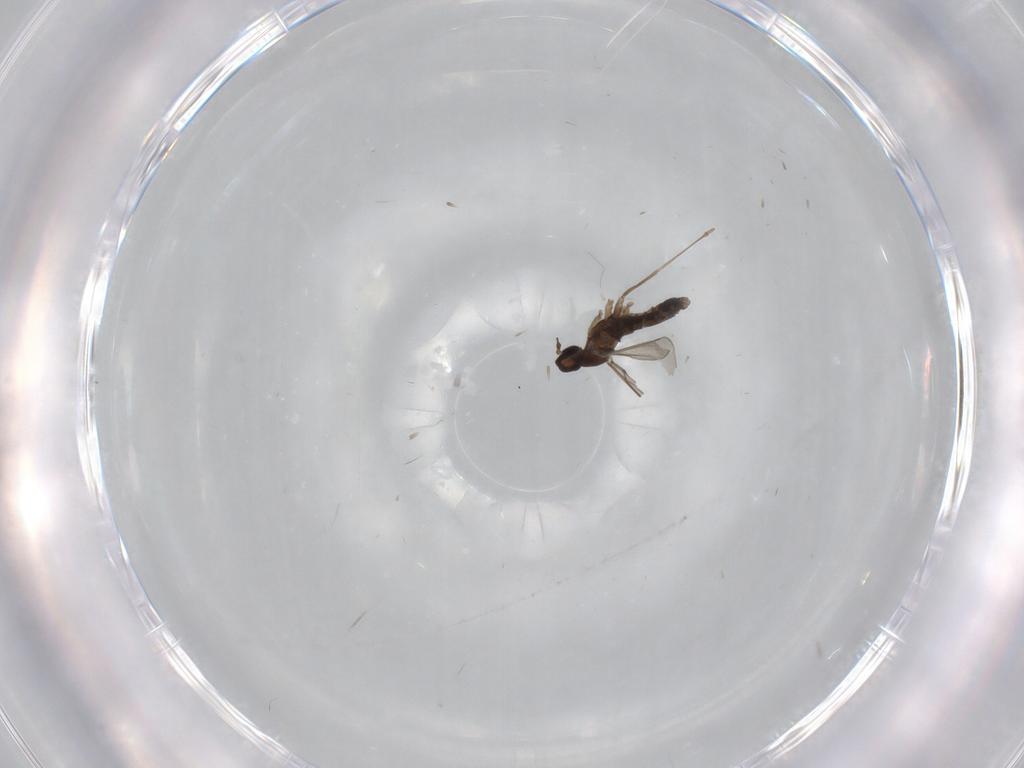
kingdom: Animalia
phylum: Arthropoda
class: Insecta
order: Diptera
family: Cecidomyiidae
